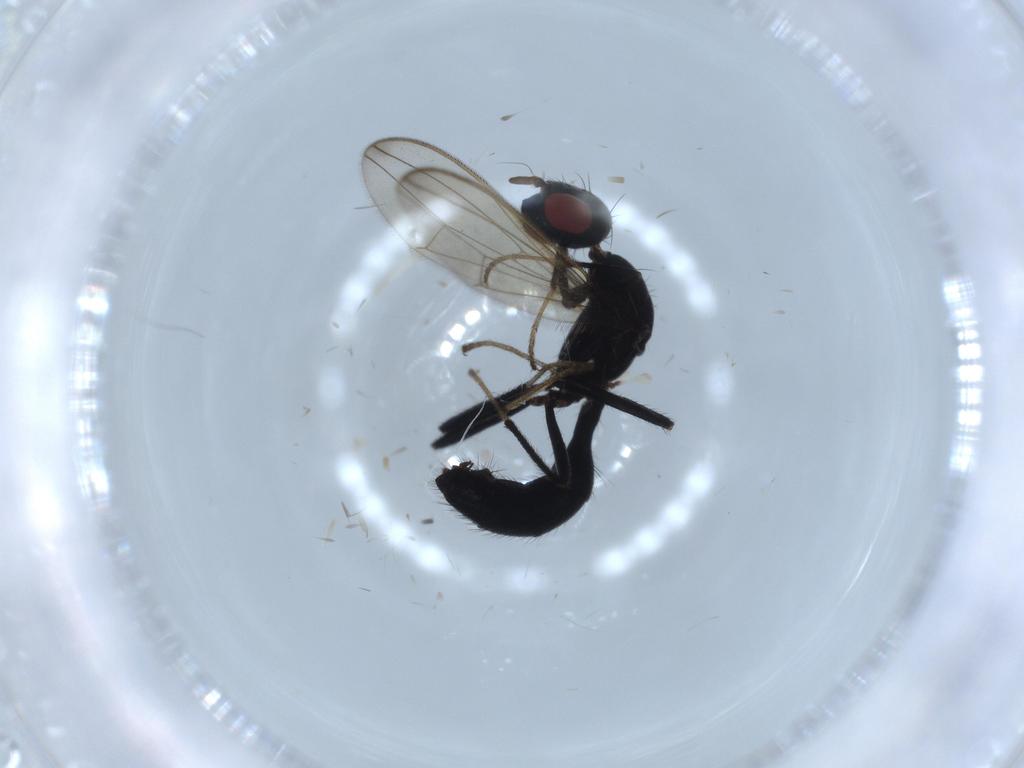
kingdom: Animalia
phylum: Arthropoda
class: Insecta
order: Diptera
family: Richardiidae
